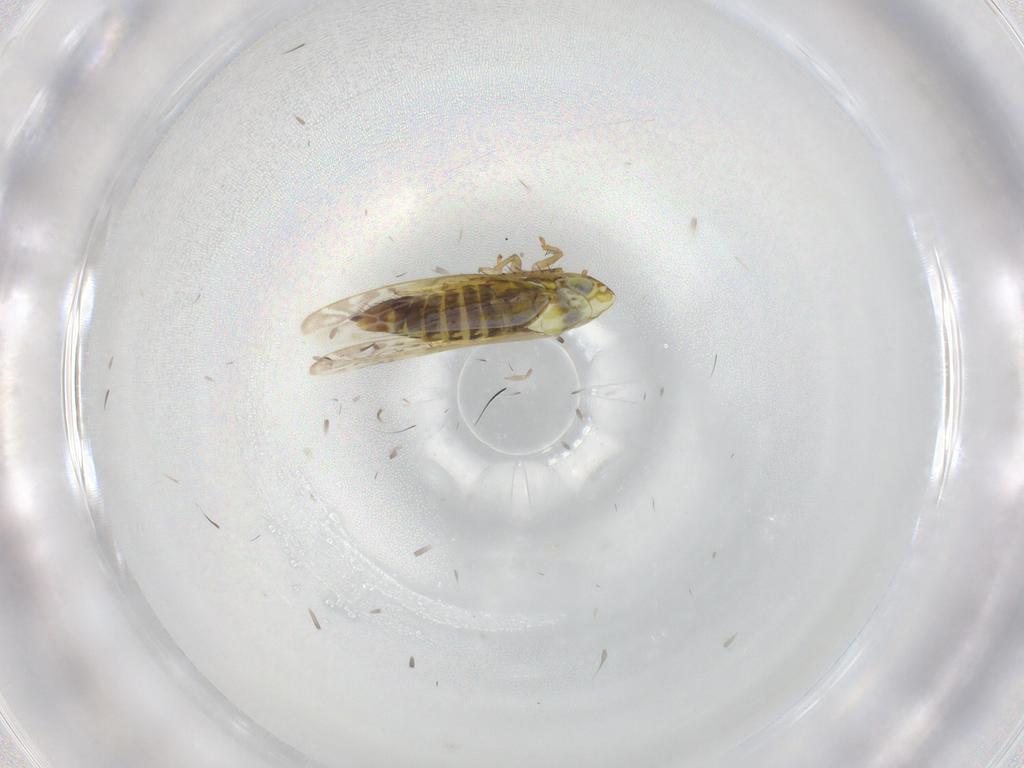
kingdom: Animalia
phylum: Arthropoda
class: Insecta
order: Hemiptera
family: Cicadellidae
